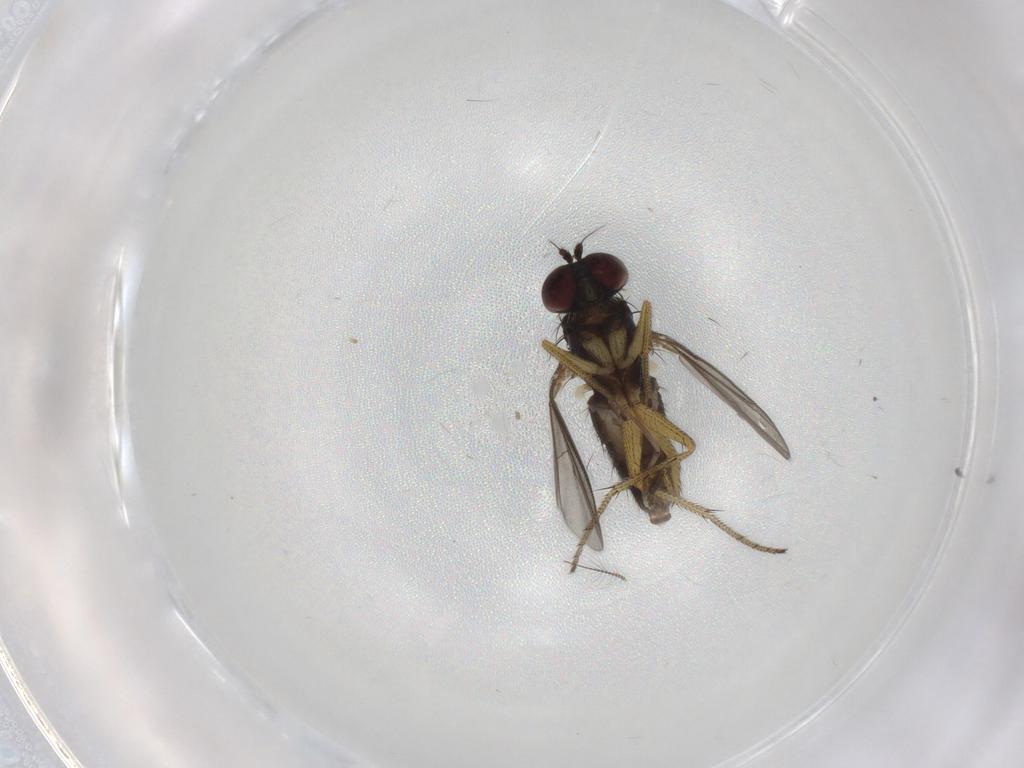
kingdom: Animalia
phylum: Arthropoda
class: Insecta
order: Diptera
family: Dolichopodidae
